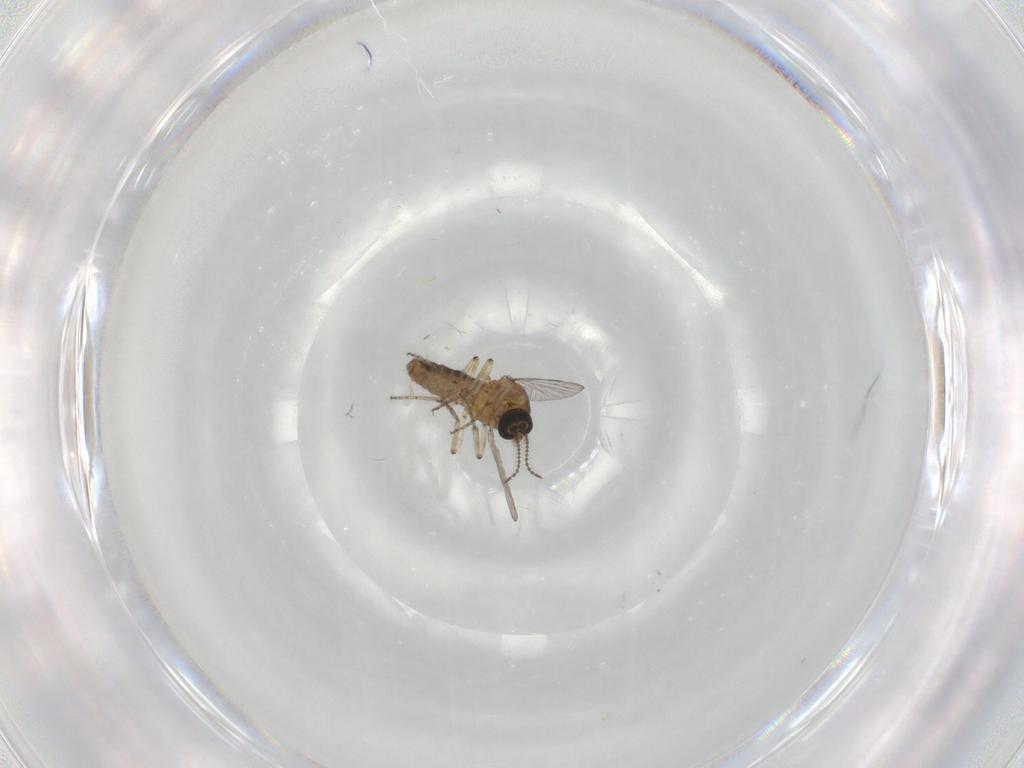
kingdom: Animalia
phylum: Arthropoda
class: Insecta
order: Diptera
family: Ceratopogonidae
